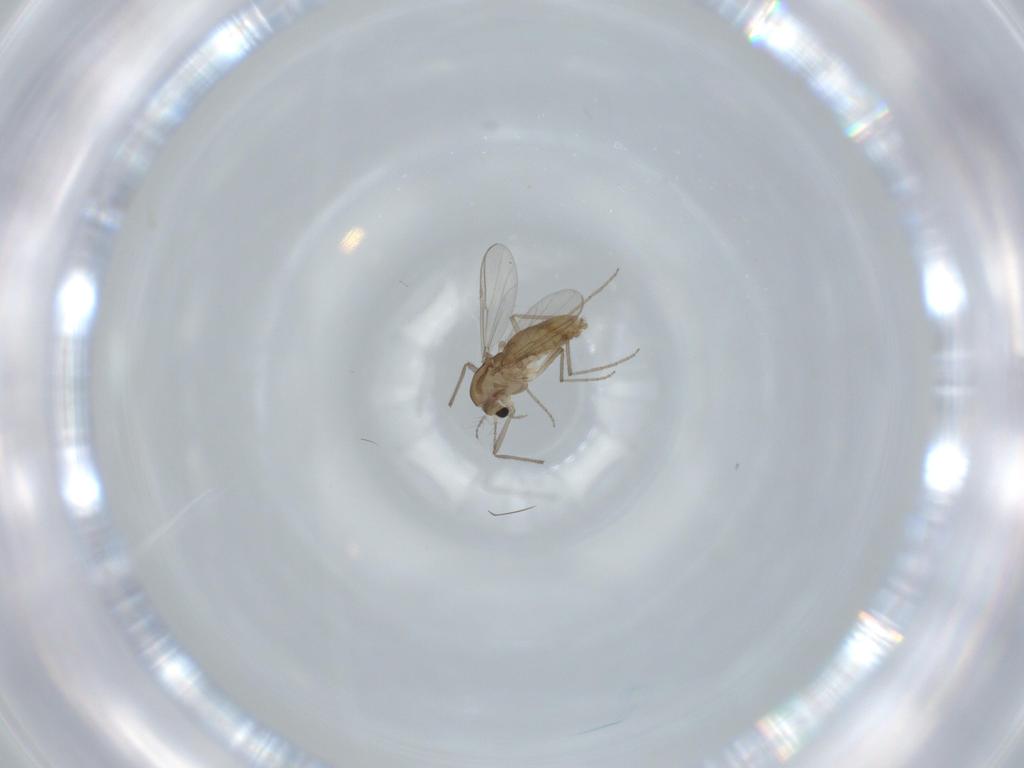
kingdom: Animalia
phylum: Arthropoda
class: Insecta
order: Diptera
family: Chironomidae
